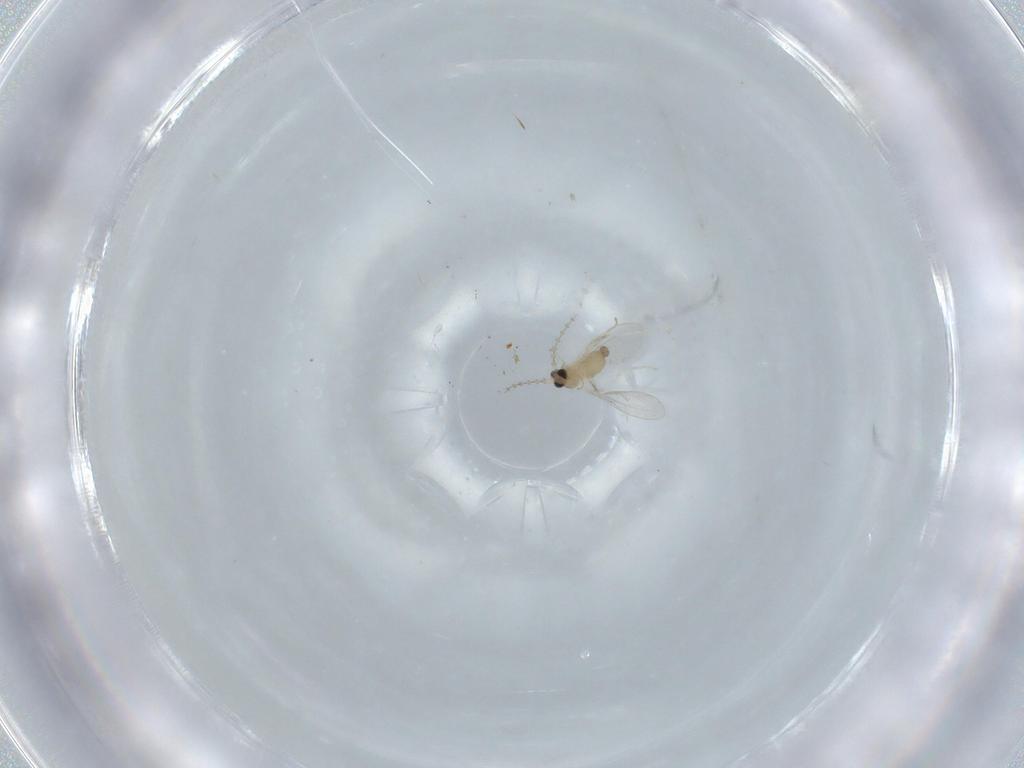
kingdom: Animalia
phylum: Arthropoda
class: Insecta
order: Diptera
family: Cecidomyiidae
